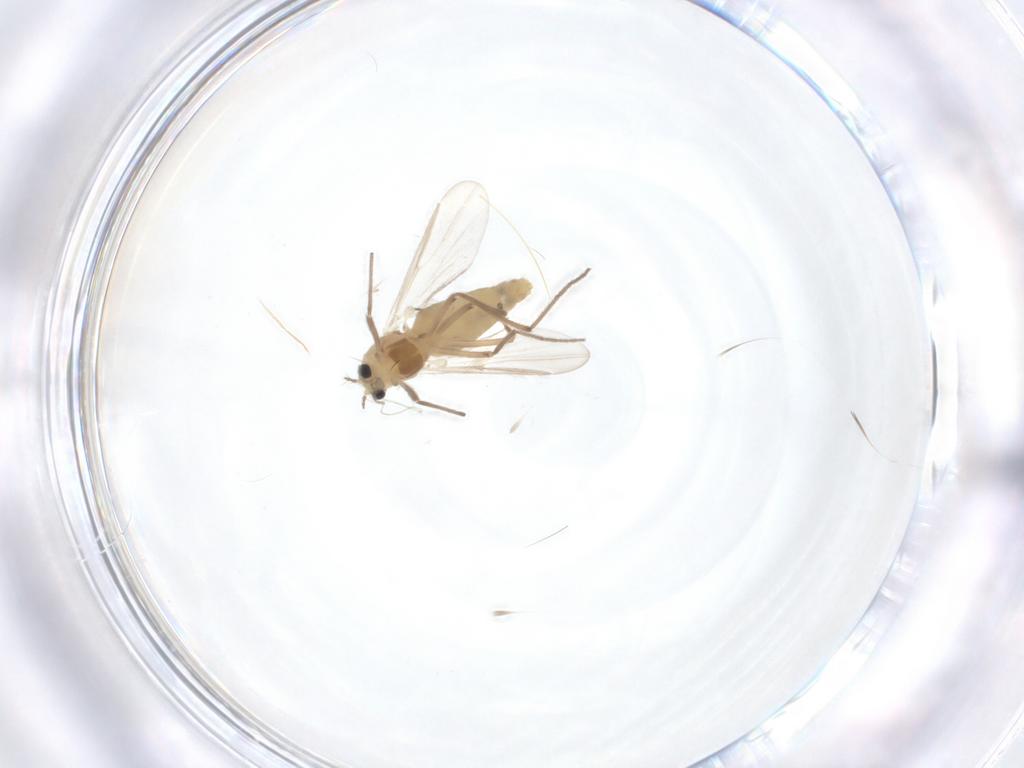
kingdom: Animalia
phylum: Arthropoda
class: Insecta
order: Diptera
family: Chironomidae
